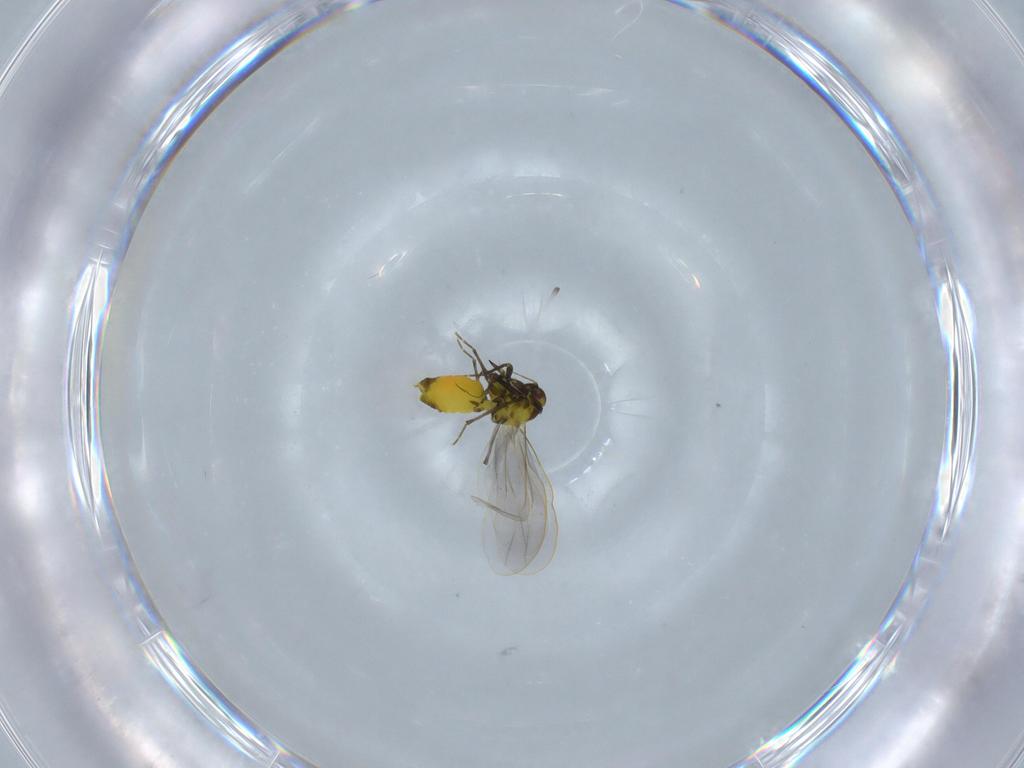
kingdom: Animalia
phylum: Arthropoda
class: Insecta
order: Hemiptera
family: Aleyrodidae
